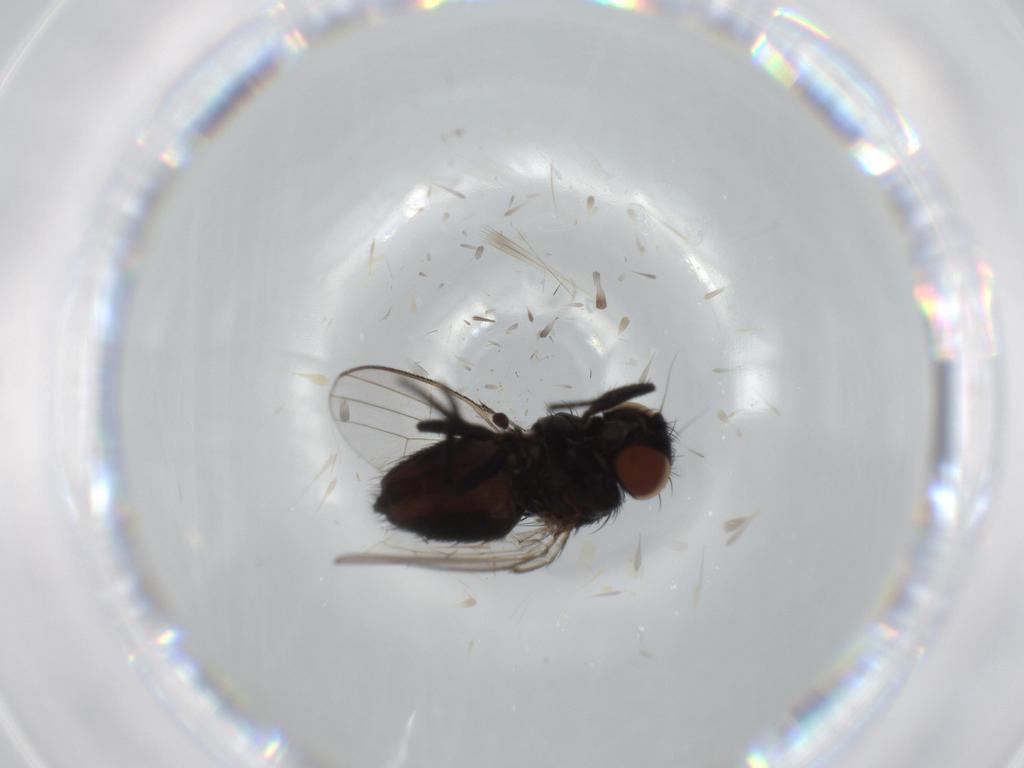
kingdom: Animalia
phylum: Arthropoda
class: Insecta
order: Diptera
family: Sciaridae
